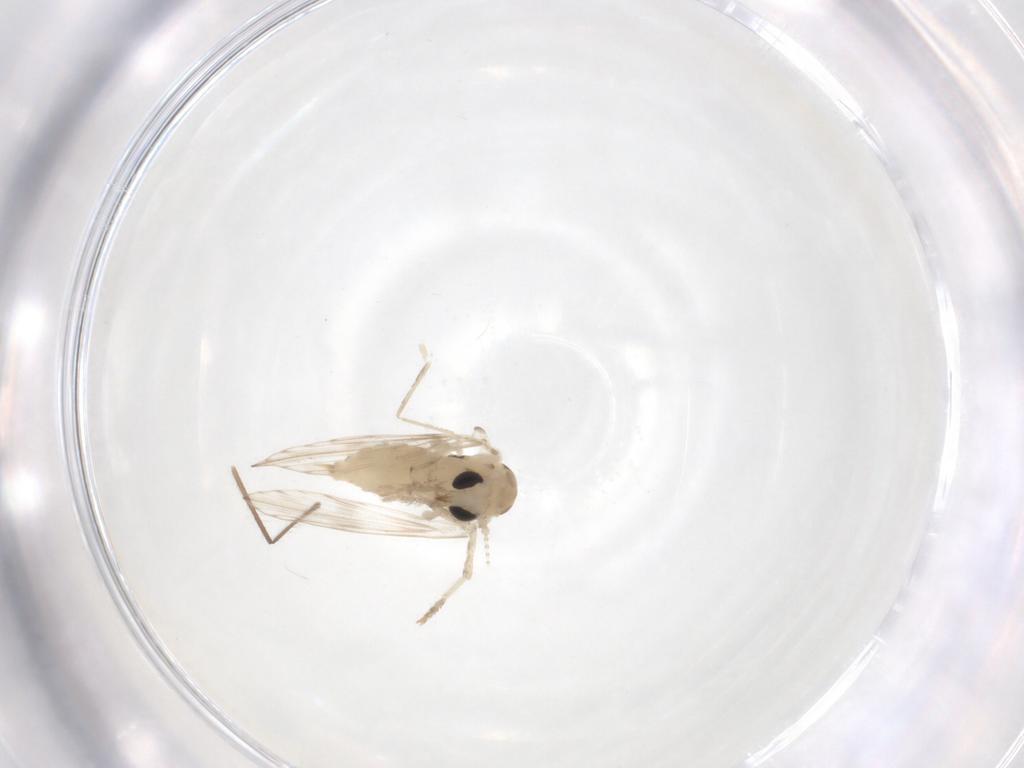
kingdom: Animalia
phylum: Arthropoda
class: Insecta
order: Diptera
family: Psychodidae
